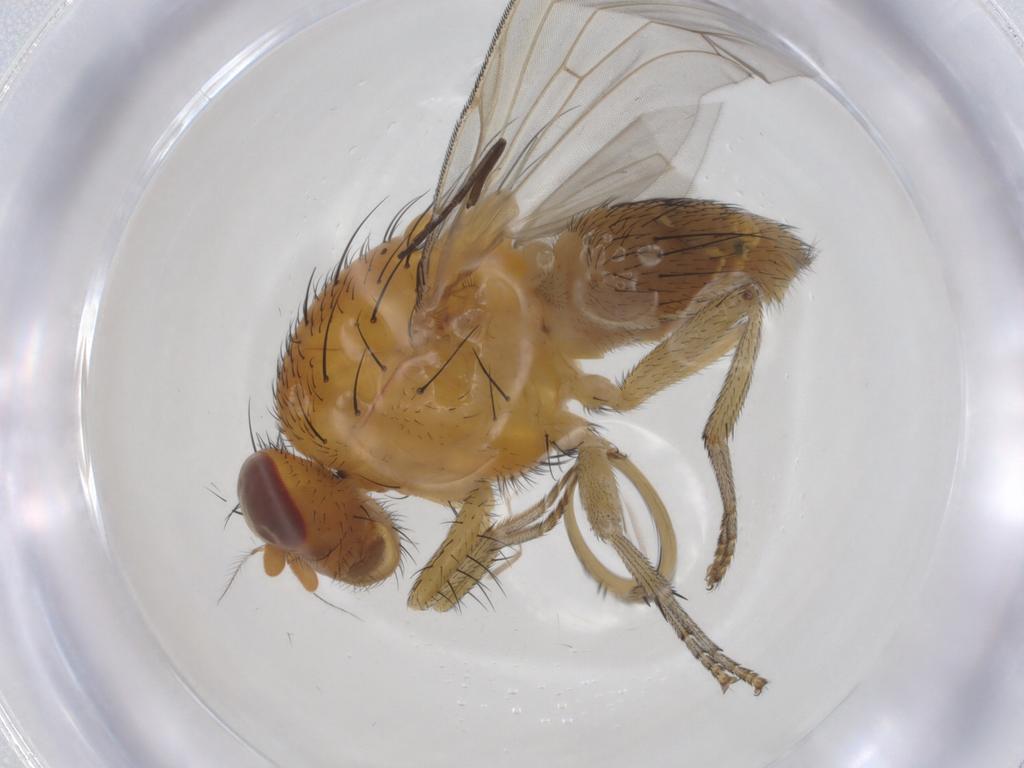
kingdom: Animalia
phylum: Arthropoda
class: Insecta
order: Diptera
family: Sciaridae
